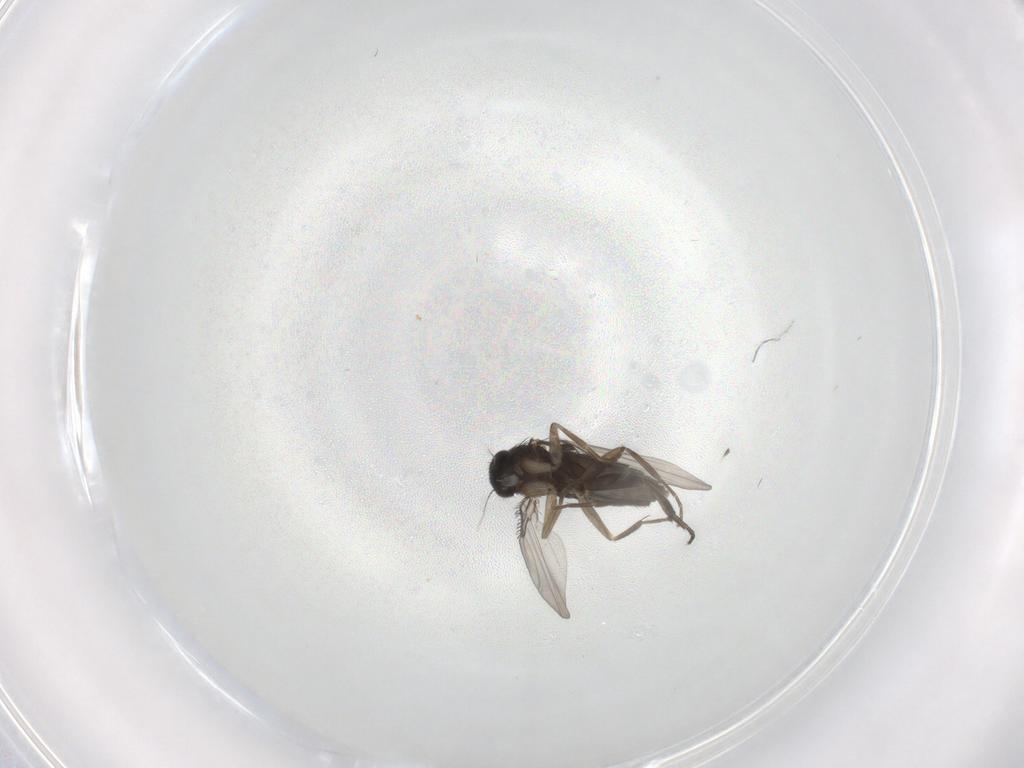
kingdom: Animalia
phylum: Arthropoda
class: Insecta
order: Diptera
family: Phoridae
